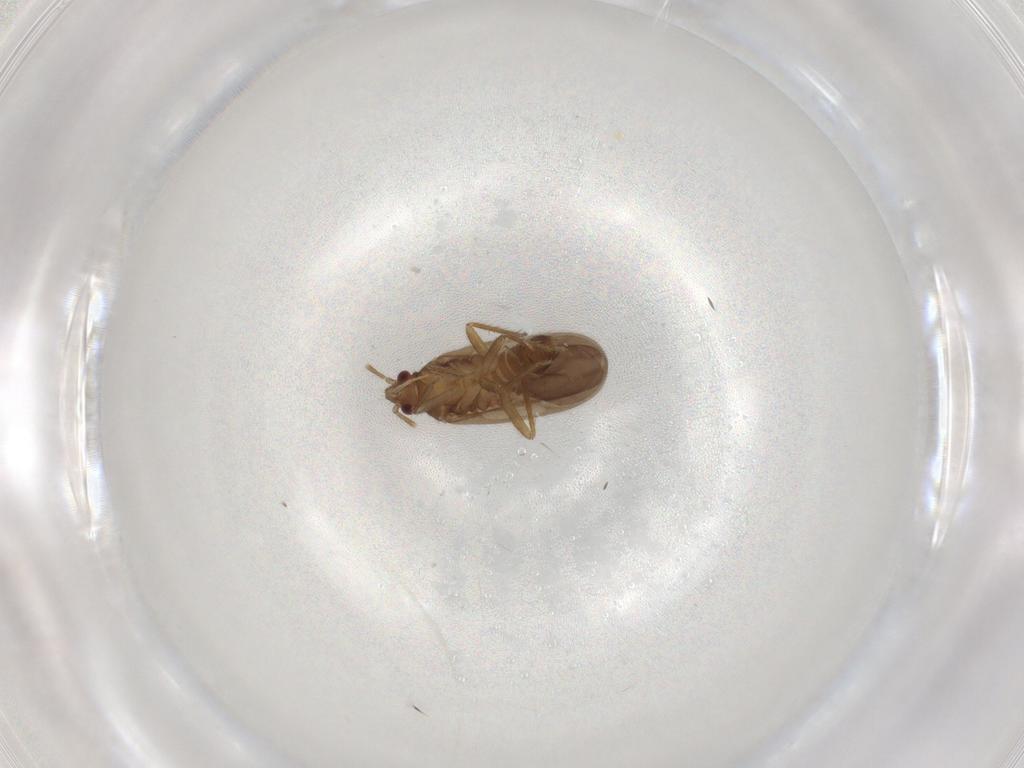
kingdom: Animalia
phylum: Arthropoda
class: Insecta
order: Hemiptera
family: Ceratocombidae
